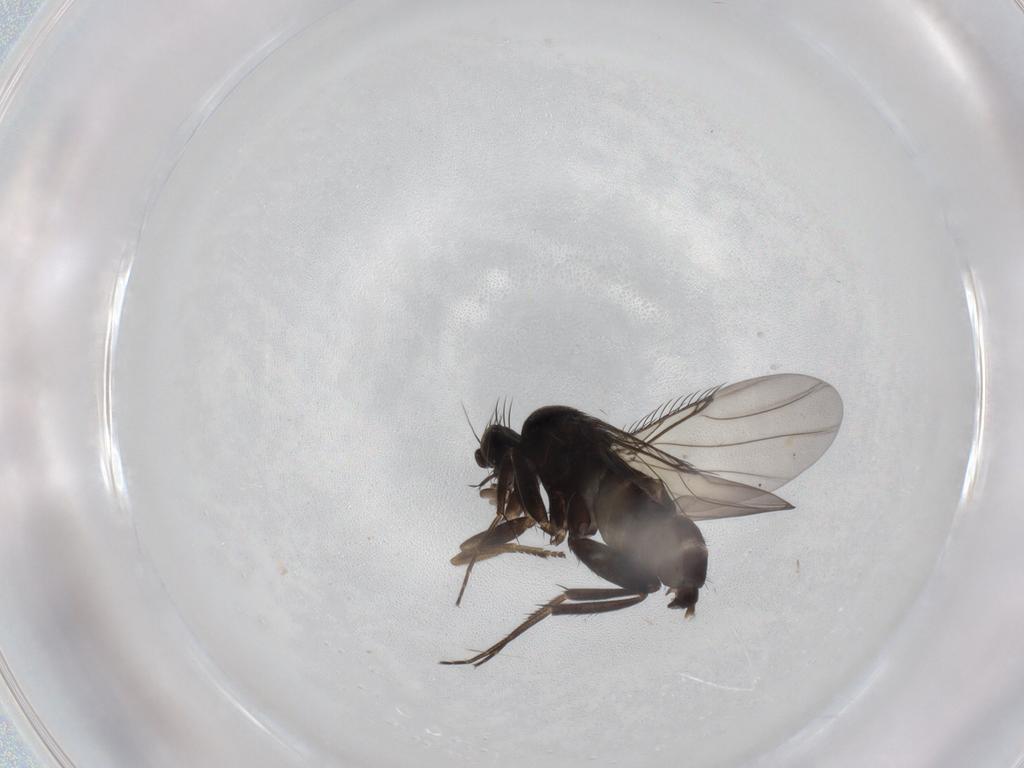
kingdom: Animalia
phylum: Arthropoda
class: Insecta
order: Diptera
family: Phoridae
